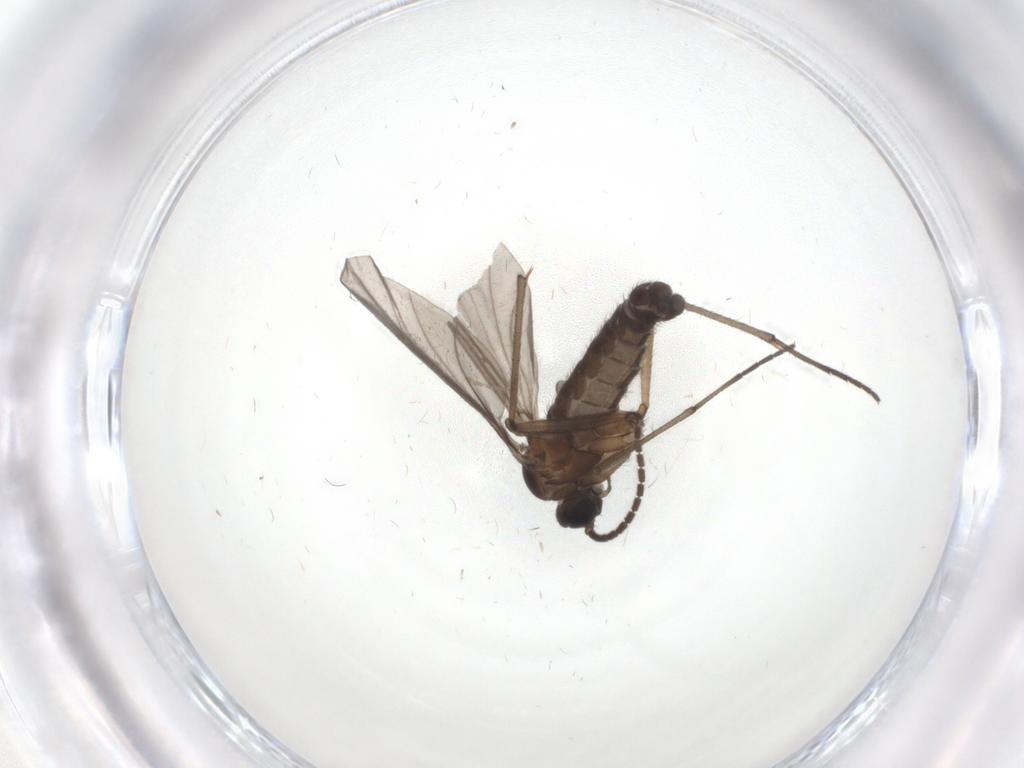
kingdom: Animalia
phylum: Arthropoda
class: Insecta
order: Diptera
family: Sciaridae
